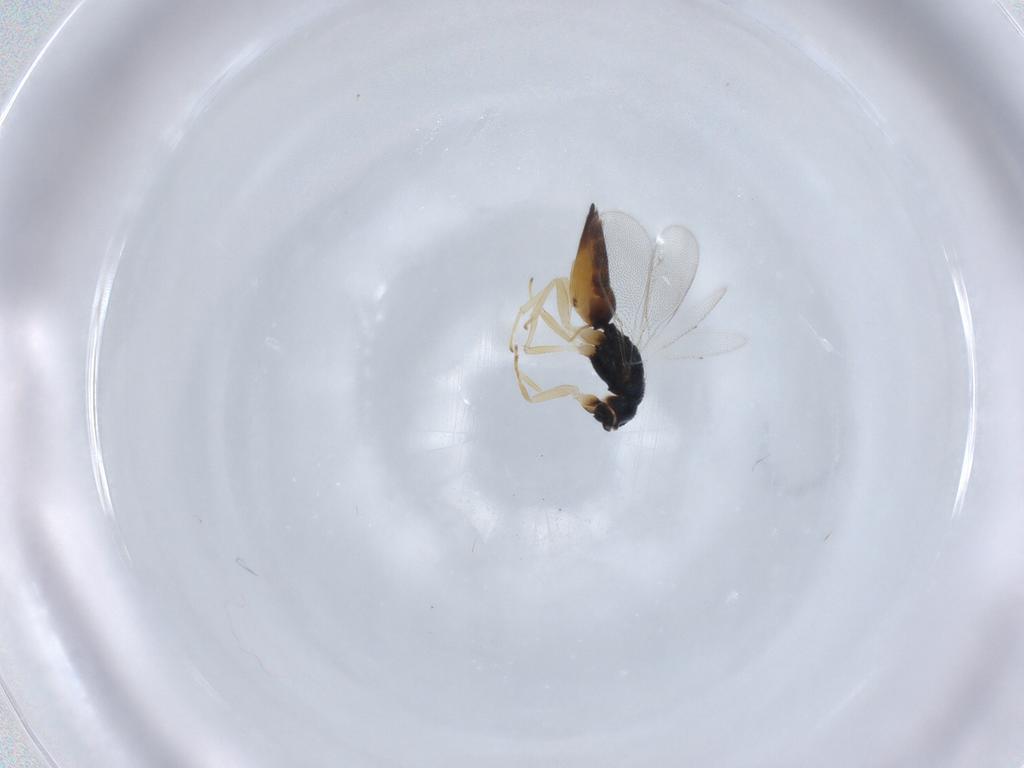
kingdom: Animalia
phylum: Arthropoda
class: Insecta
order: Hymenoptera
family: Eulophidae
